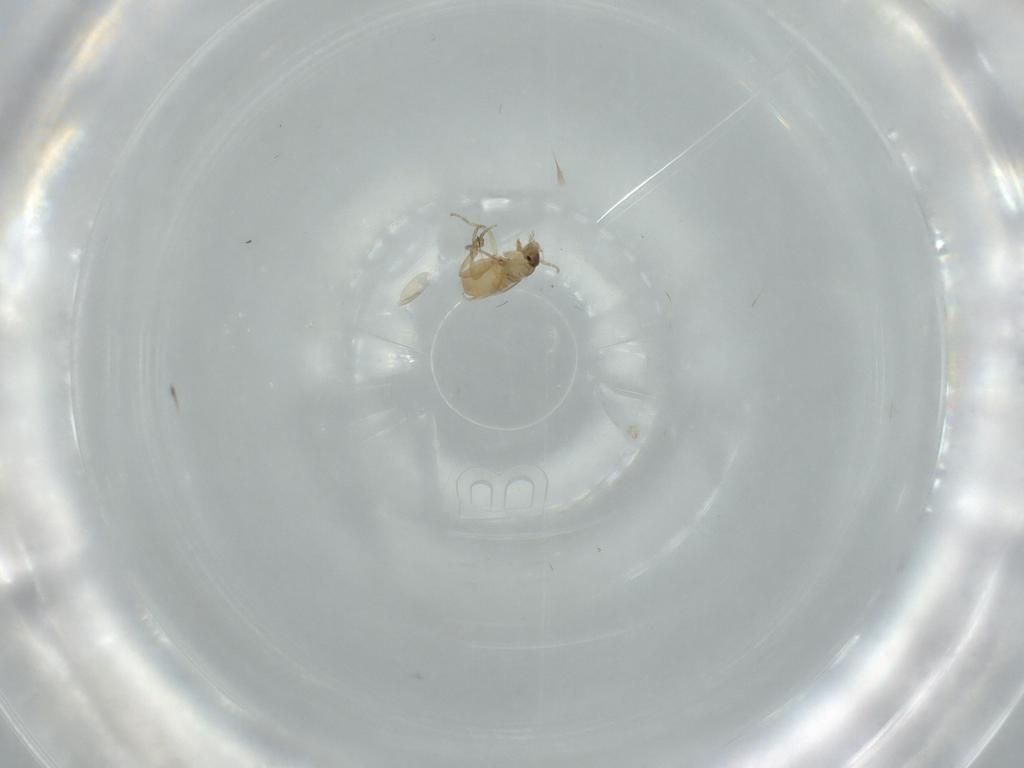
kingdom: Animalia
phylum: Arthropoda
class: Insecta
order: Diptera
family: Phoridae
